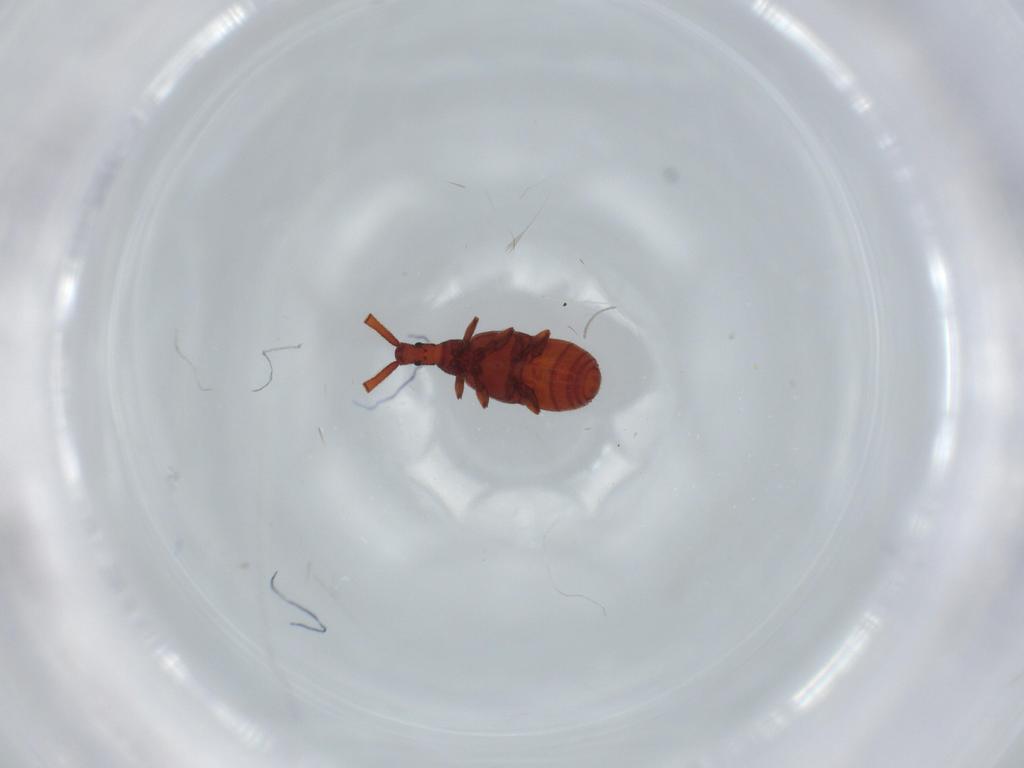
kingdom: Animalia
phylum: Arthropoda
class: Insecta
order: Coleoptera
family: Staphylinidae
